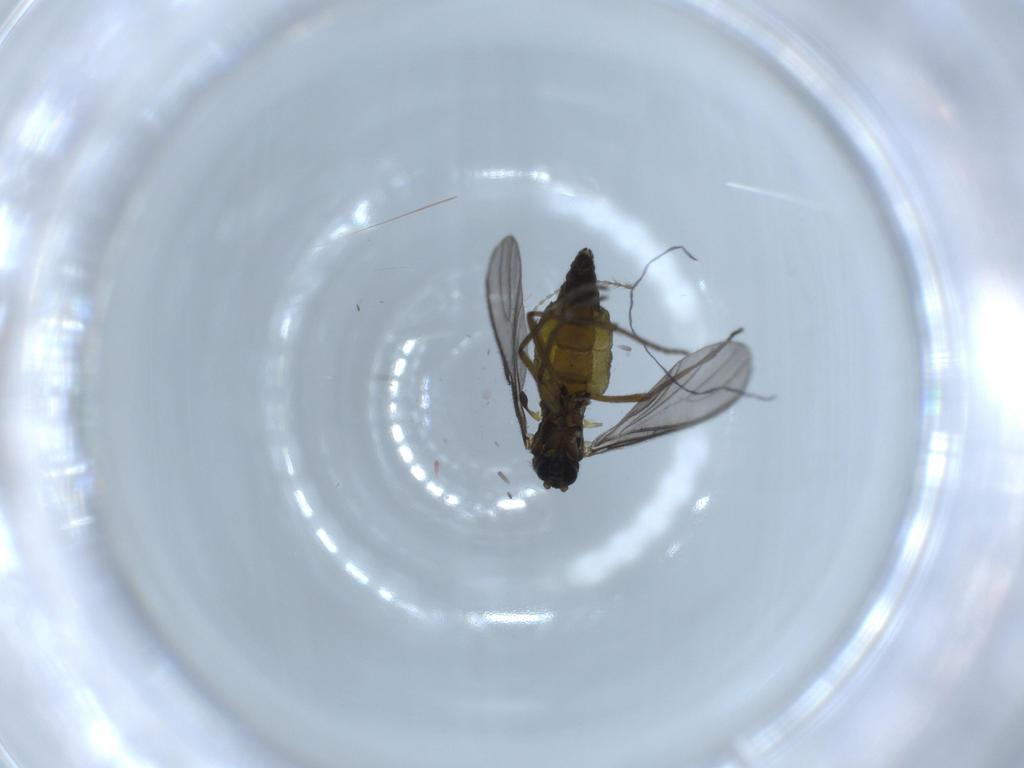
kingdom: Animalia
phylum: Arthropoda
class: Insecta
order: Diptera
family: Sciaridae
